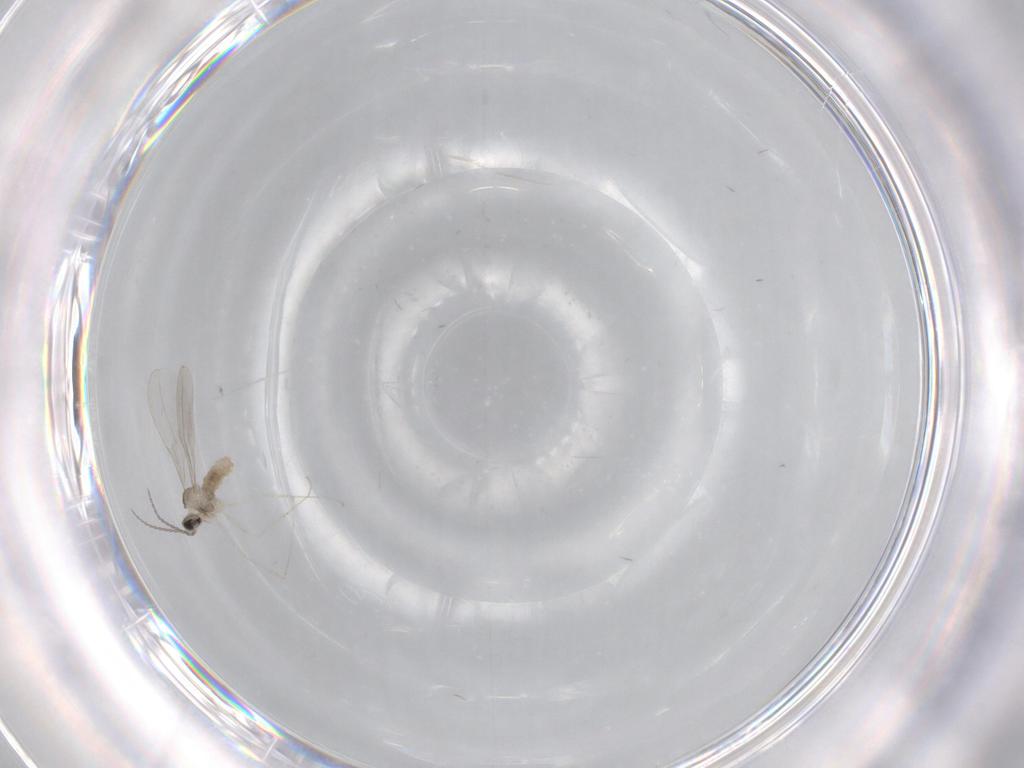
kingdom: Animalia
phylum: Arthropoda
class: Insecta
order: Diptera
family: Cecidomyiidae
